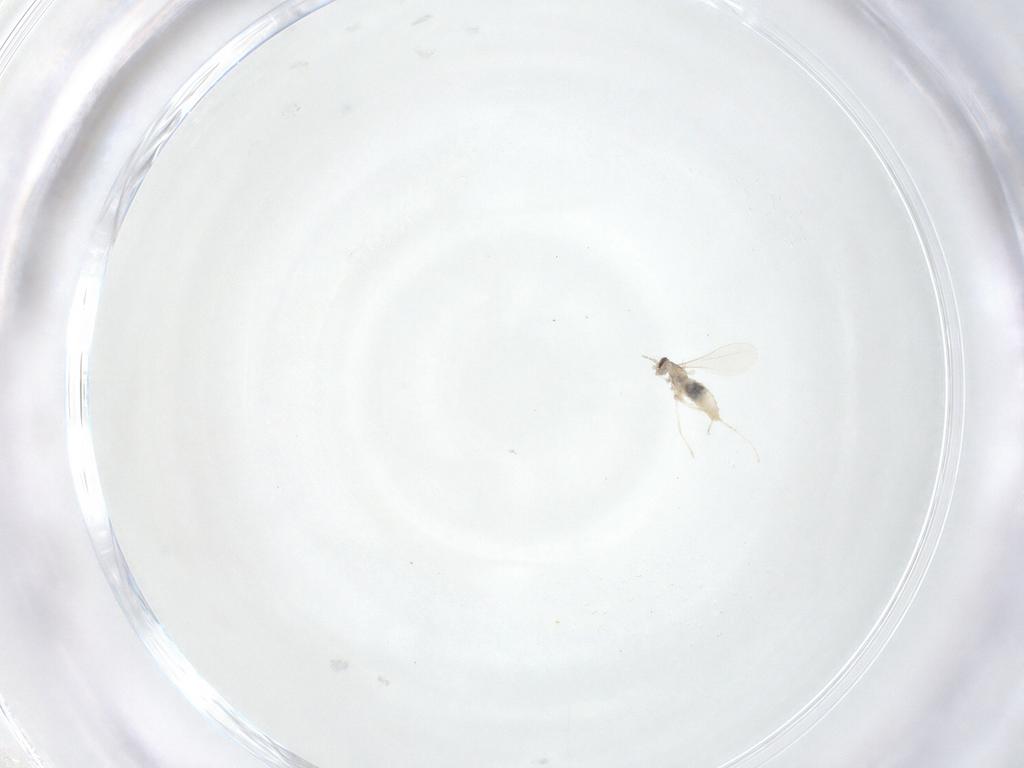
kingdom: Animalia
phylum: Arthropoda
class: Insecta
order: Diptera
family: Cecidomyiidae
